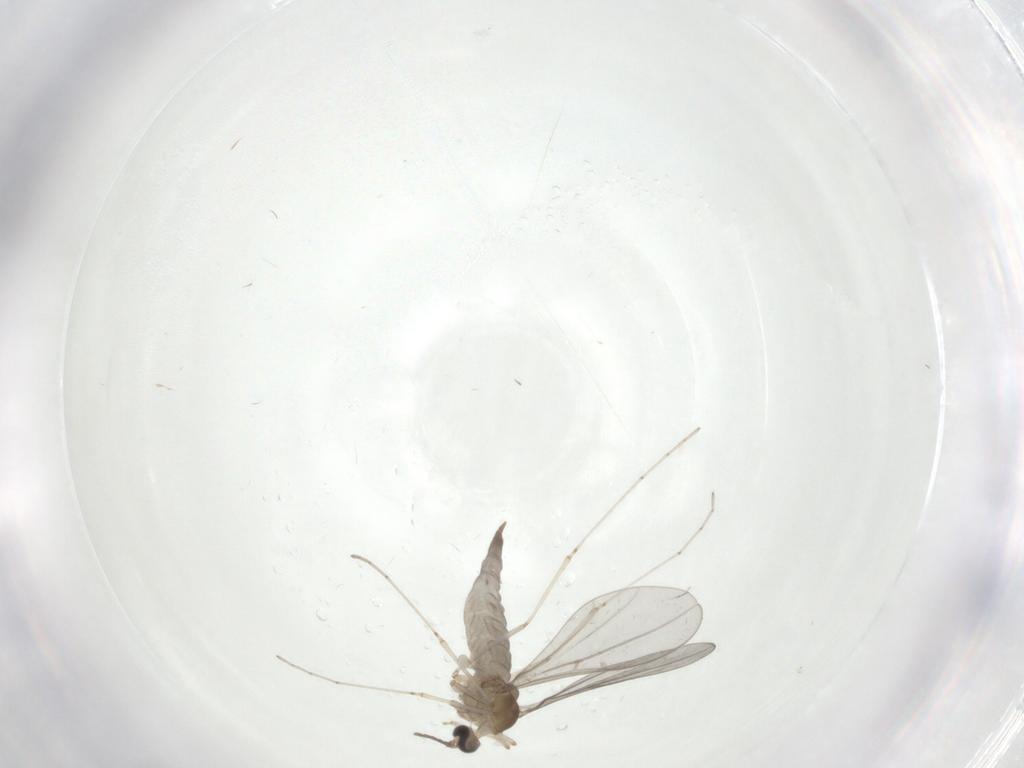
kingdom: Animalia
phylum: Arthropoda
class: Insecta
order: Diptera
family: Cecidomyiidae
